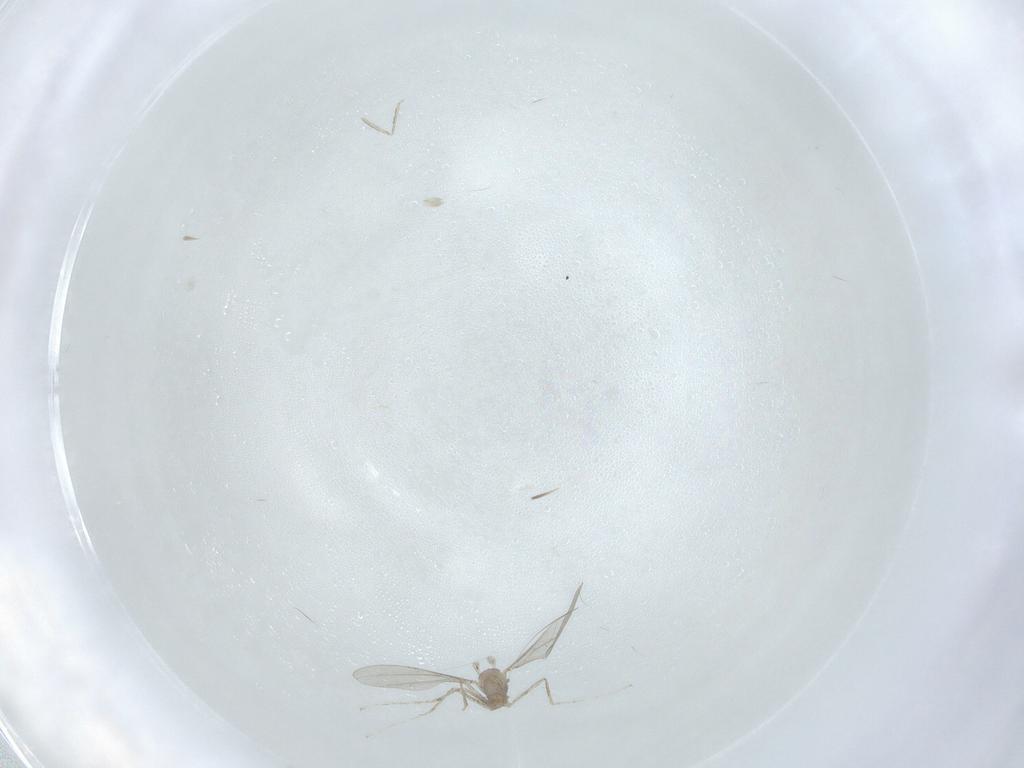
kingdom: Animalia
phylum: Arthropoda
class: Insecta
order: Diptera
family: Cecidomyiidae
